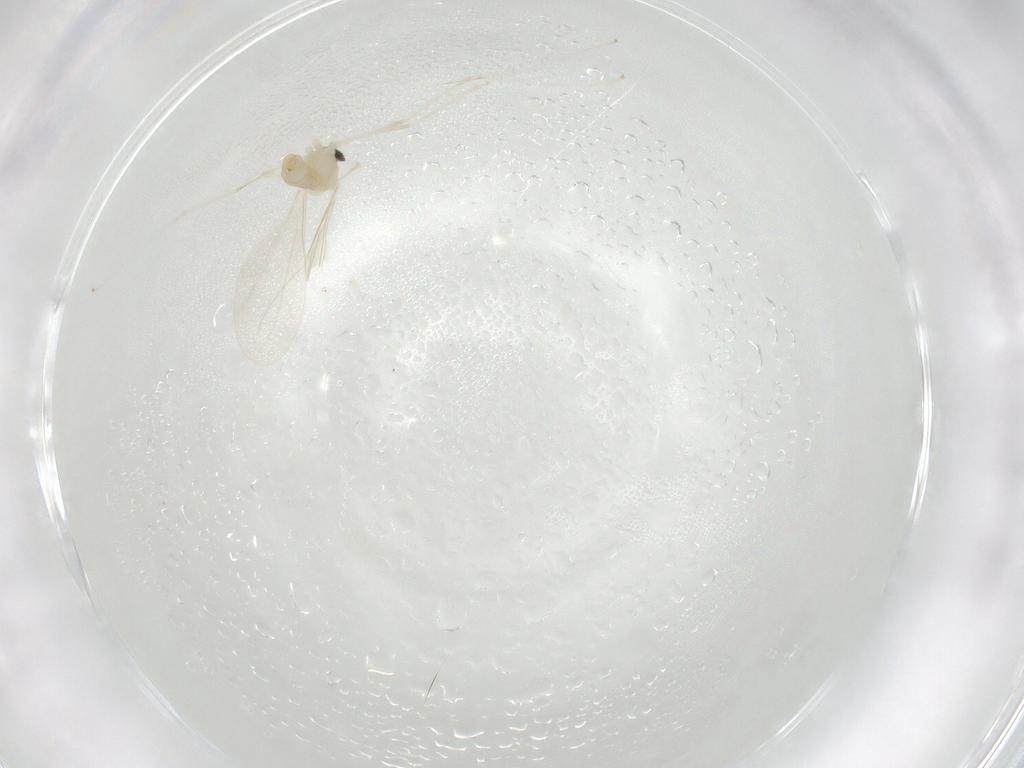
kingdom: Animalia
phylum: Arthropoda
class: Insecta
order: Diptera
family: Cecidomyiidae
